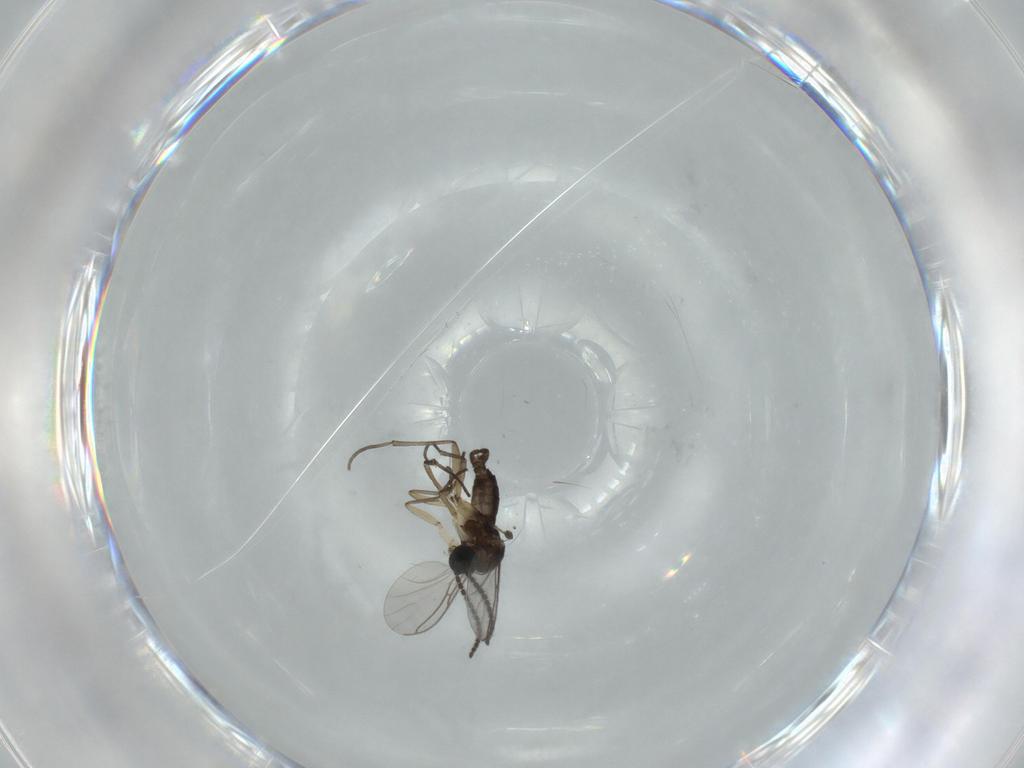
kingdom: Animalia
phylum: Arthropoda
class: Insecta
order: Diptera
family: Sciaridae
